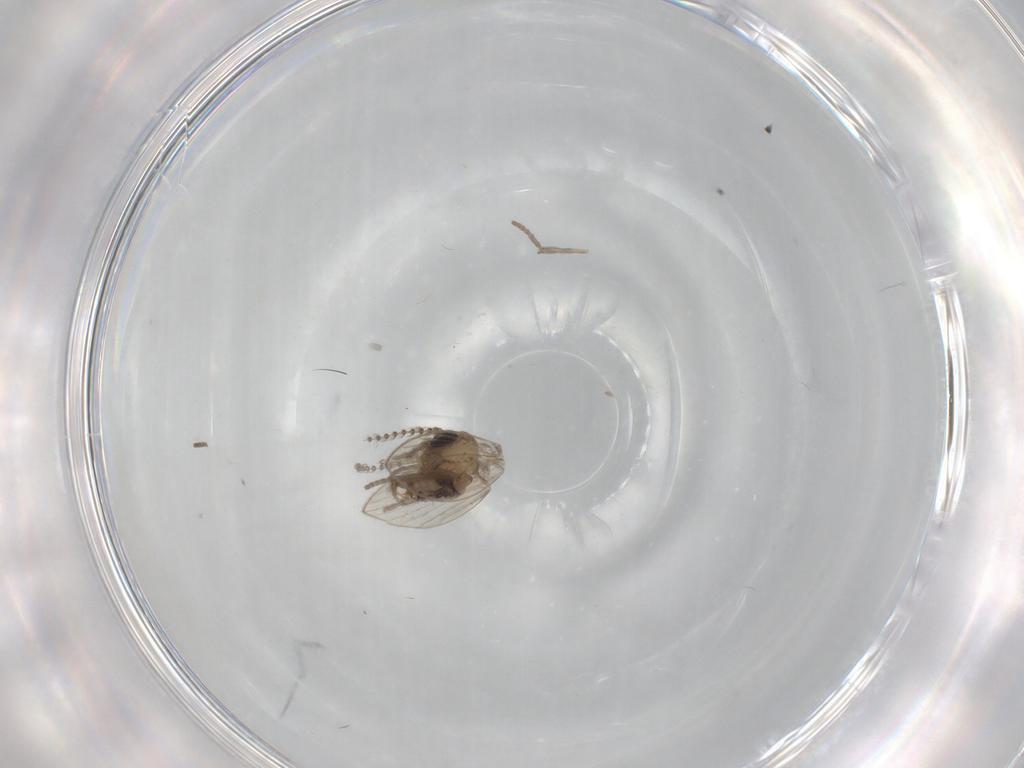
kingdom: Animalia
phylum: Arthropoda
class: Insecta
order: Diptera
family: Psychodidae
